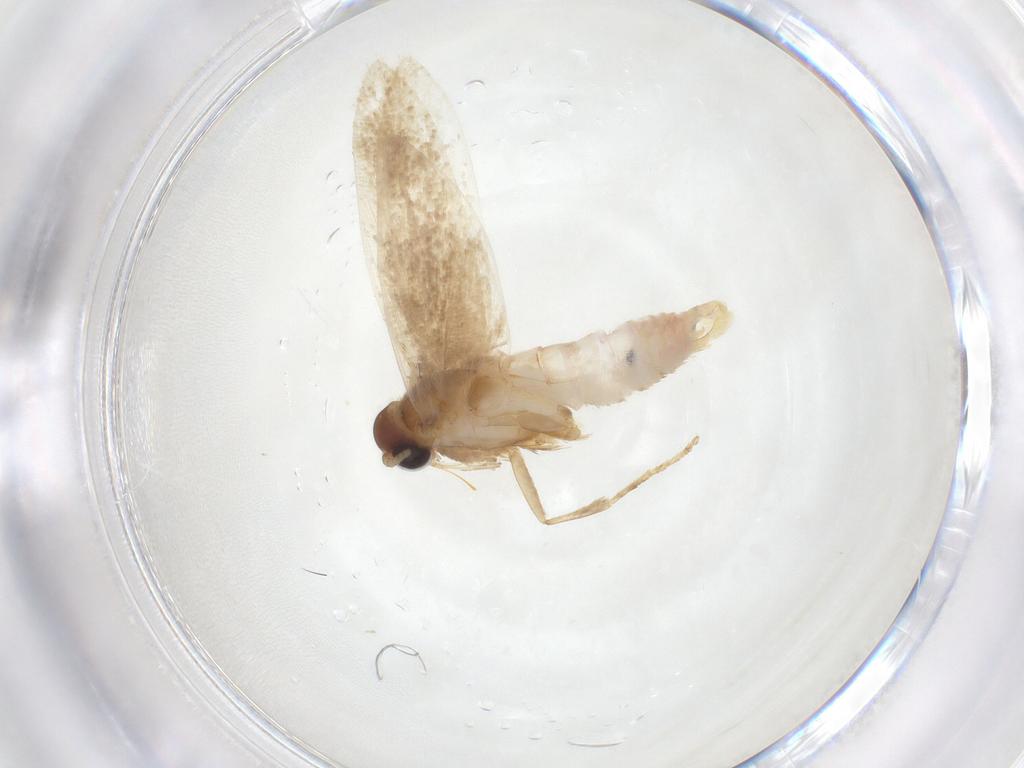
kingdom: Animalia
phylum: Arthropoda
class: Insecta
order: Lepidoptera
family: Autostichidae
